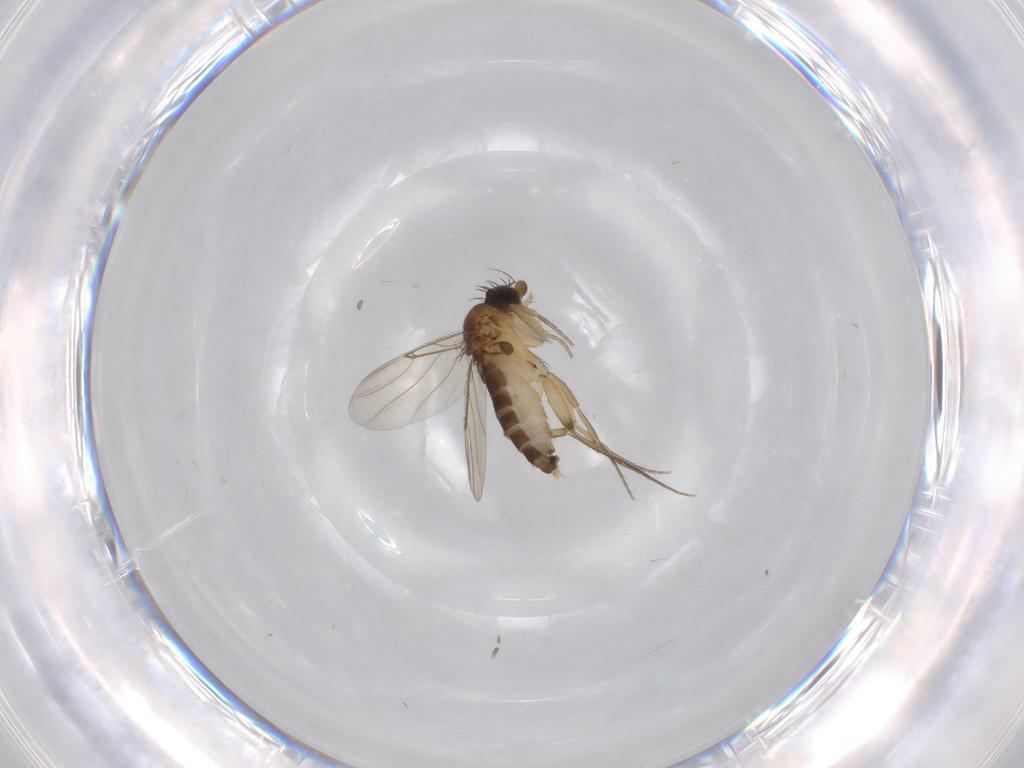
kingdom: Animalia
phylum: Arthropoda
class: Insecta
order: Diptera
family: Phoridae
